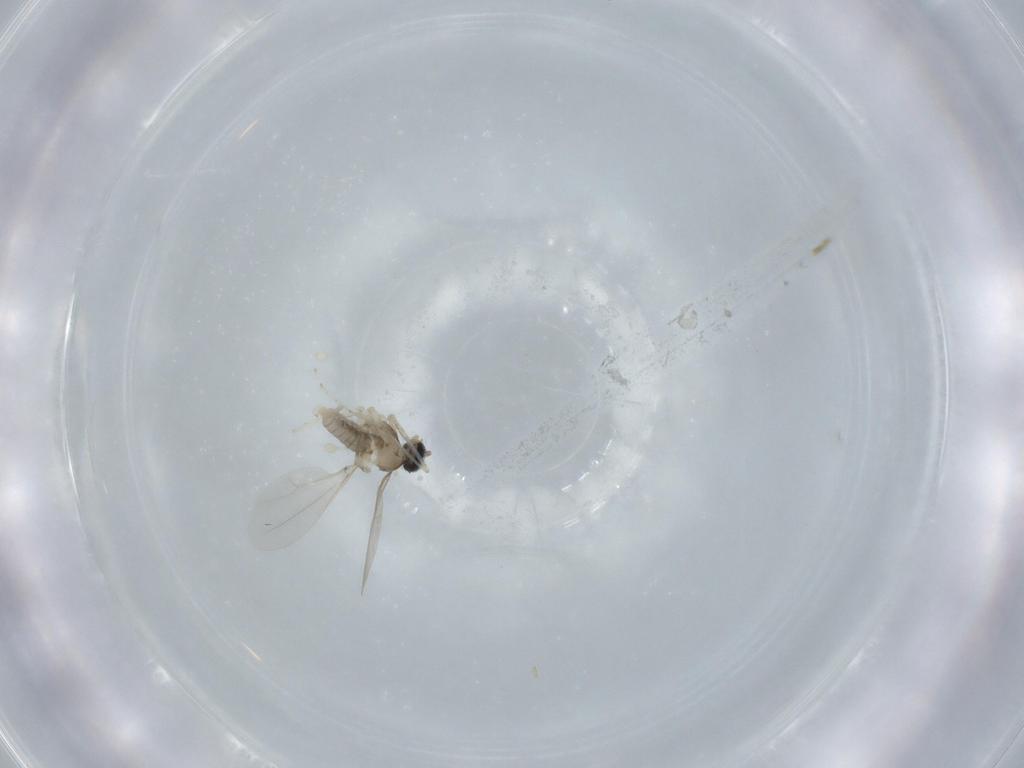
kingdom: Animalia
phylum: Arthropoda
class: Insecta
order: Diptera
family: Cecidomyiidae
